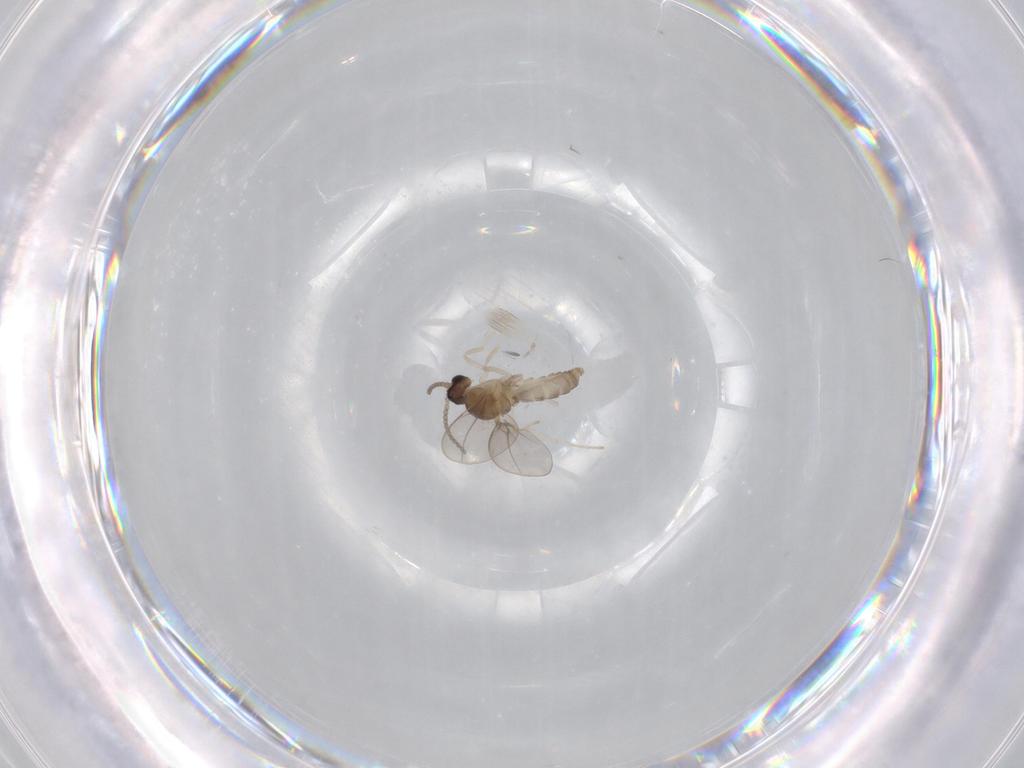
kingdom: Animalia
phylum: Arthropoda
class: Insecta
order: Diptera
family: Cecidomyiidae
